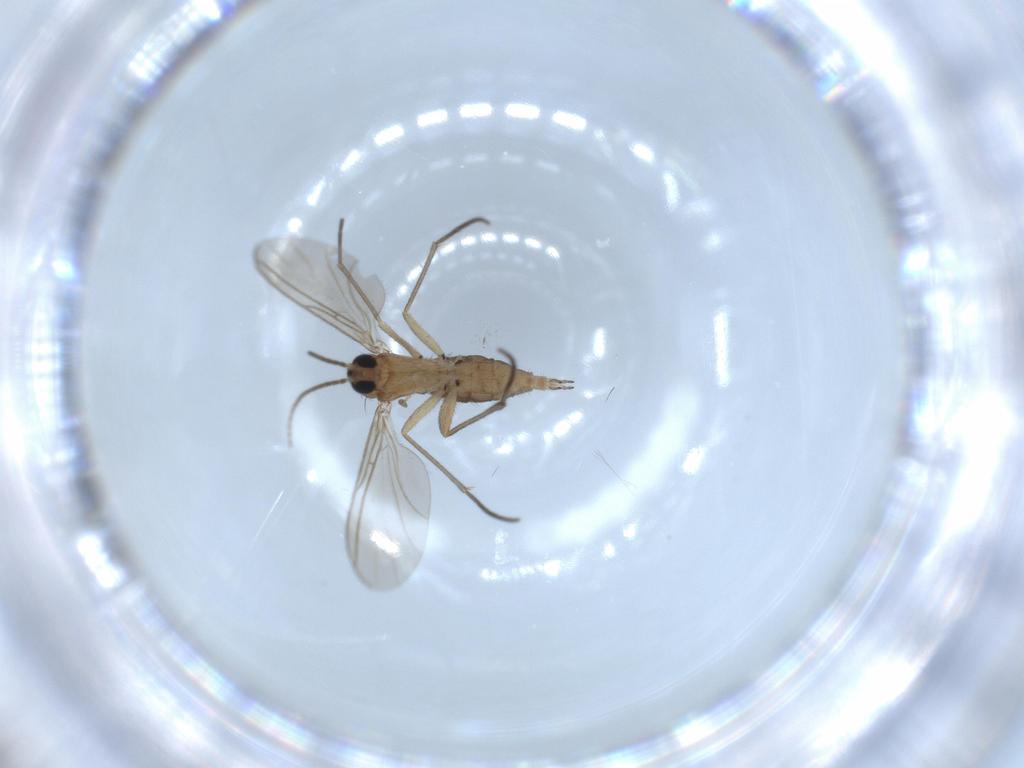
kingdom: Animalia
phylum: Arthropoda
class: Insecta
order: Diptera
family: Sciaridae
